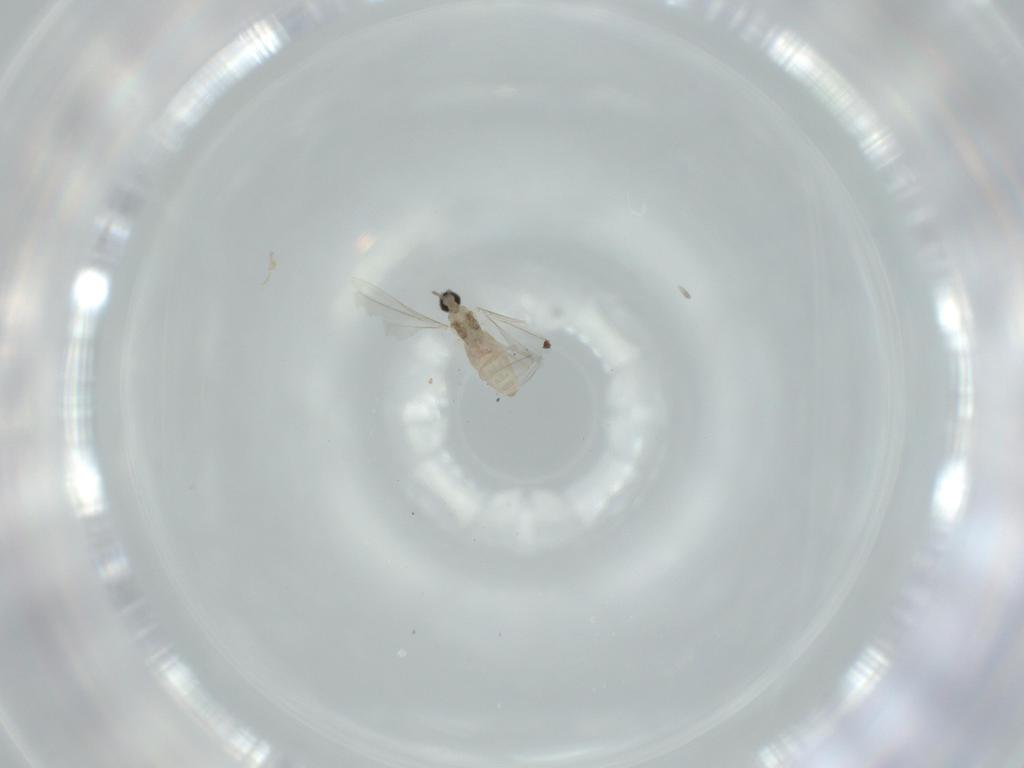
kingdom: Animalia
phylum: Arthropoda
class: Insecta
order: Diptera
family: Cecidomyiidae
